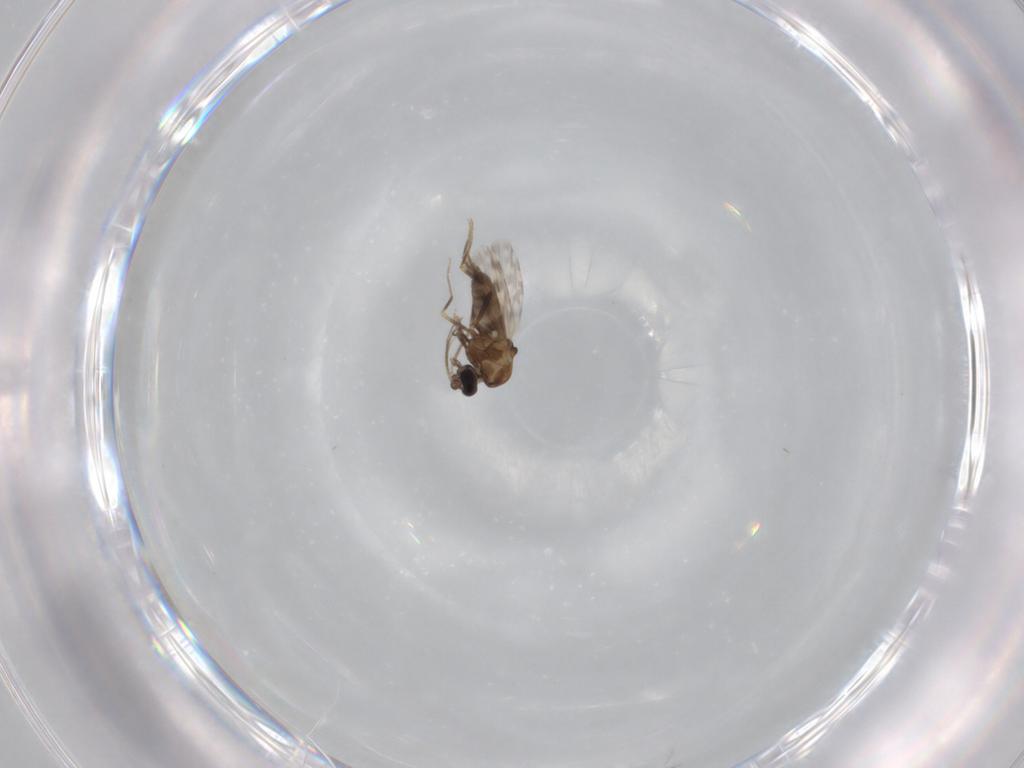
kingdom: Animalia
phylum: Arthropoda
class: Insecta
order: Diptera
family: Ceratopogonidae
